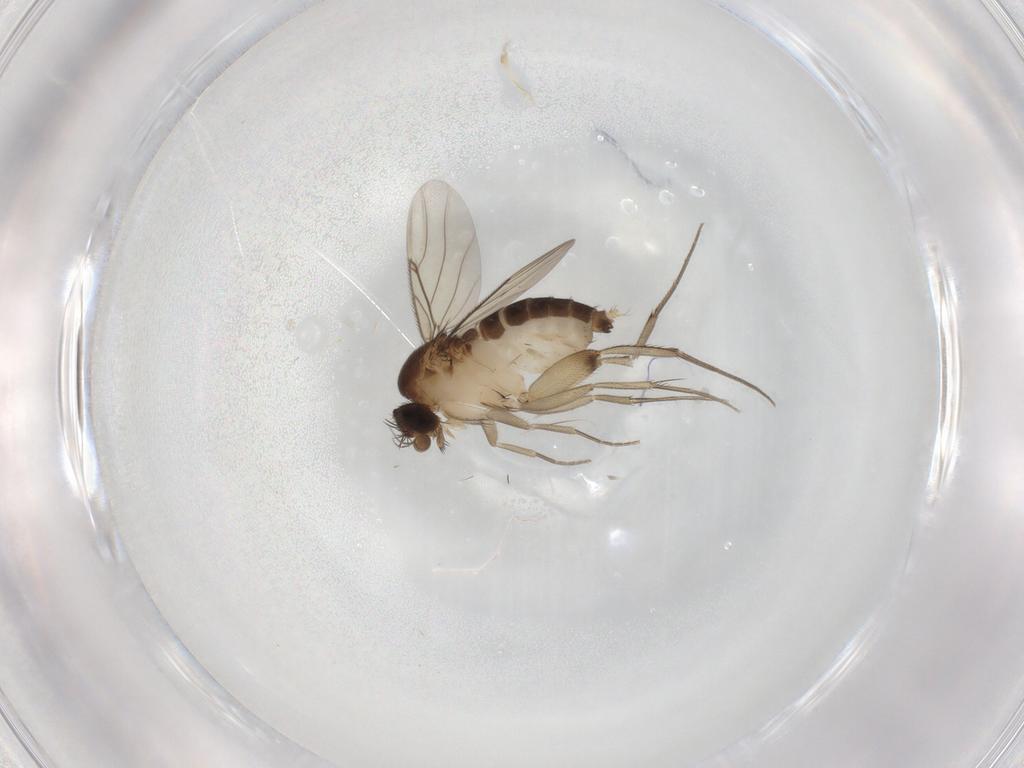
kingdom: Animalia
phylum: Arthropoda
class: Insecta
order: Diptera
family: Phoridae
